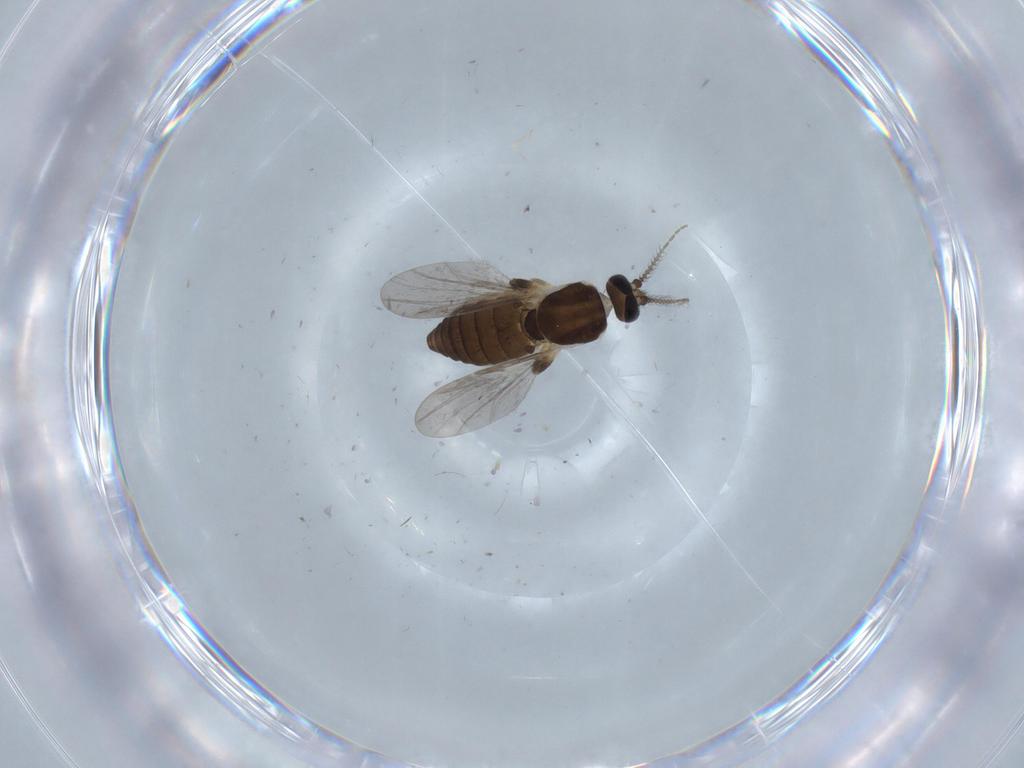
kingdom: Animalia
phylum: Arthropoda
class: Insecta
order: Diptera
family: Ceratopogonidae
